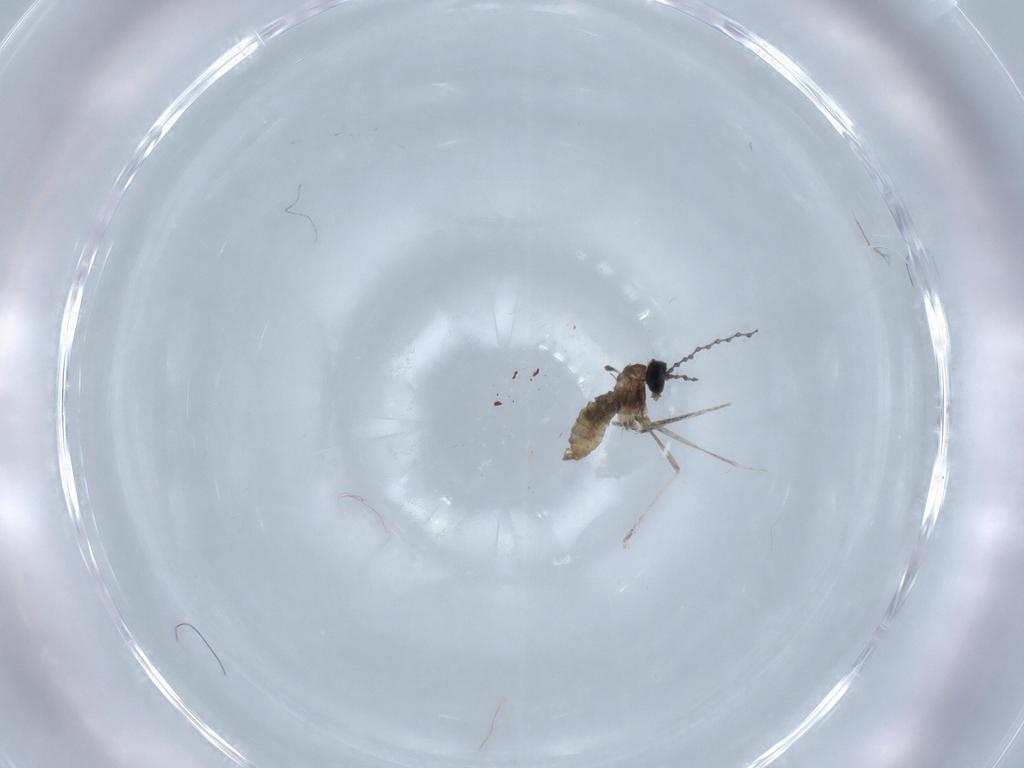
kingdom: Animalia
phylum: Arthropoda
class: Insecta
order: Diptera
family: Cecidomyiidae
